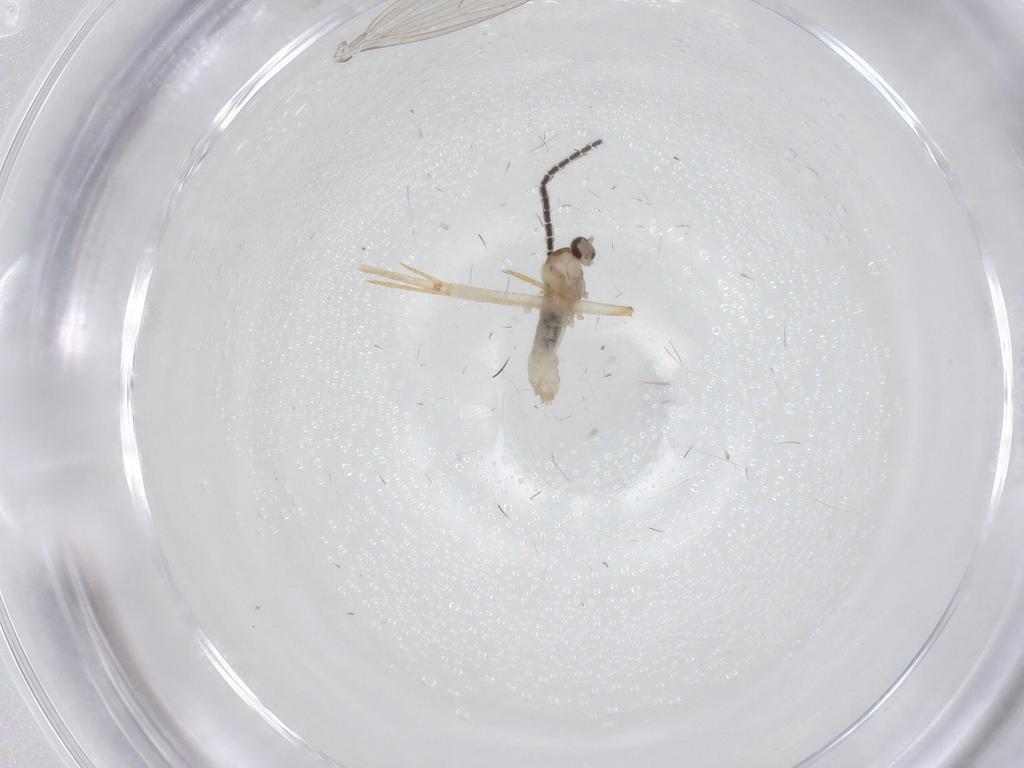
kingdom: Animalia
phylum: Arthropoda
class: Insecta
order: Diptera
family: Cecidomyiidae
